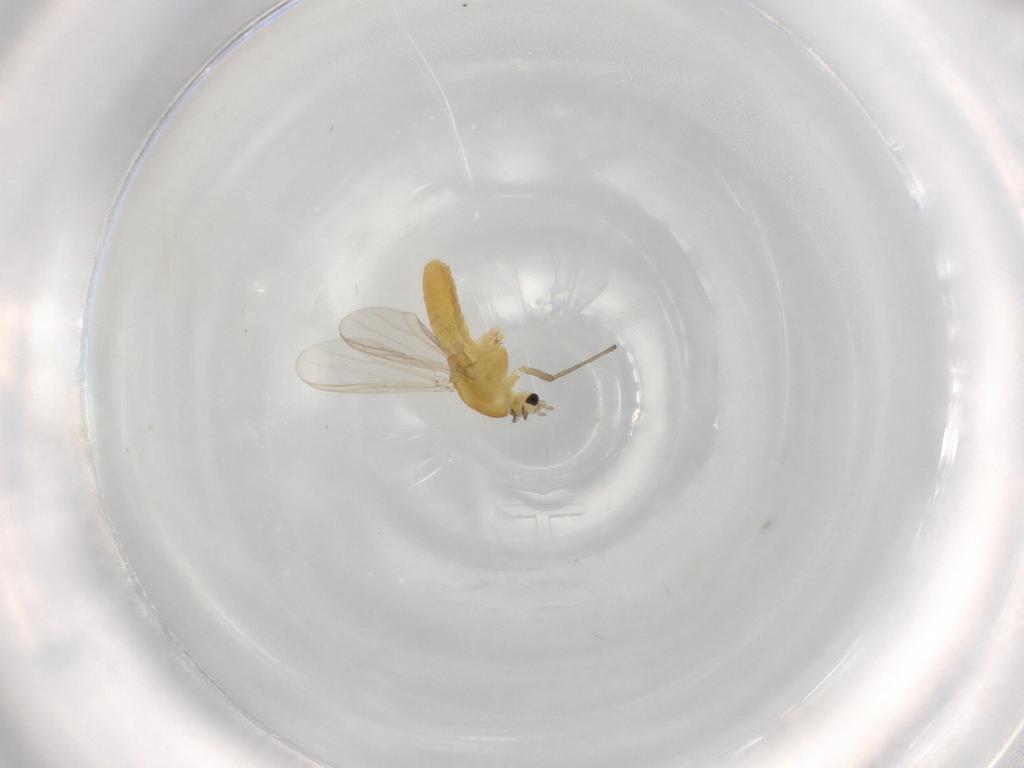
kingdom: Animalia
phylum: Arthropoda
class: Insecta
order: Diptera
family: Chironomidae
